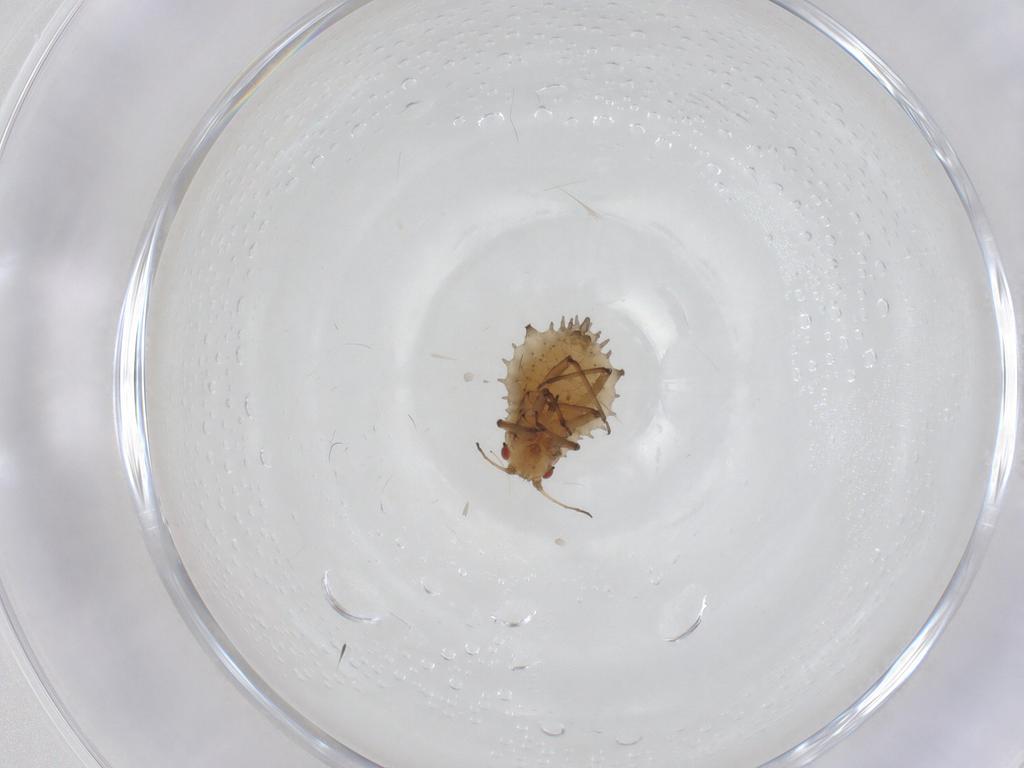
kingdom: Animalia
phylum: Arthropoda
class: Insecta
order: Hemiptera
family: Aphididae
